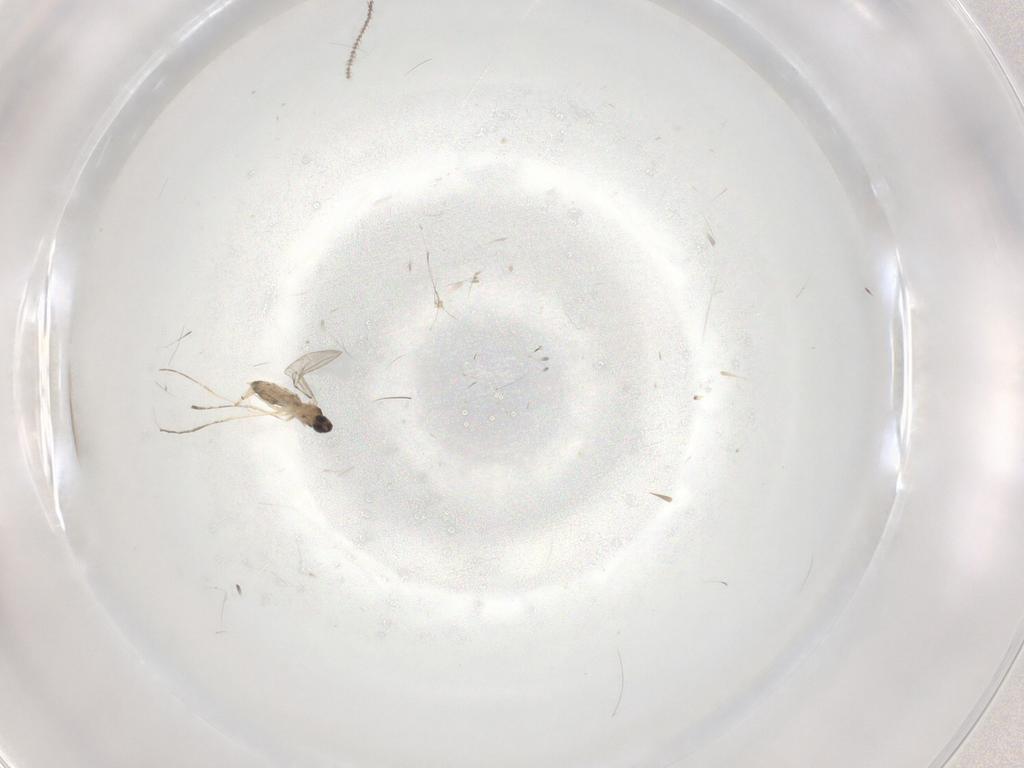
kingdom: Animalia
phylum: Arthropoda
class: Insecta
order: Diptera
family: Cecidomyiidae
